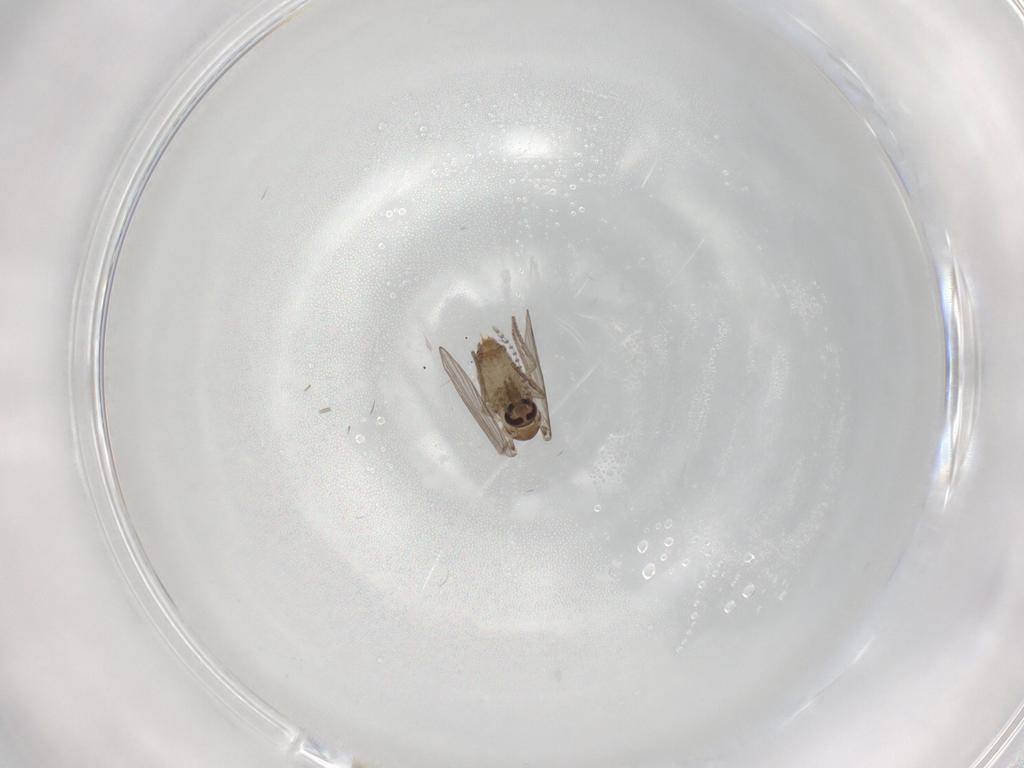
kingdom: Animalia
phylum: Arthropoda
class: Insecta
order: Diptera
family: Psychodidae
